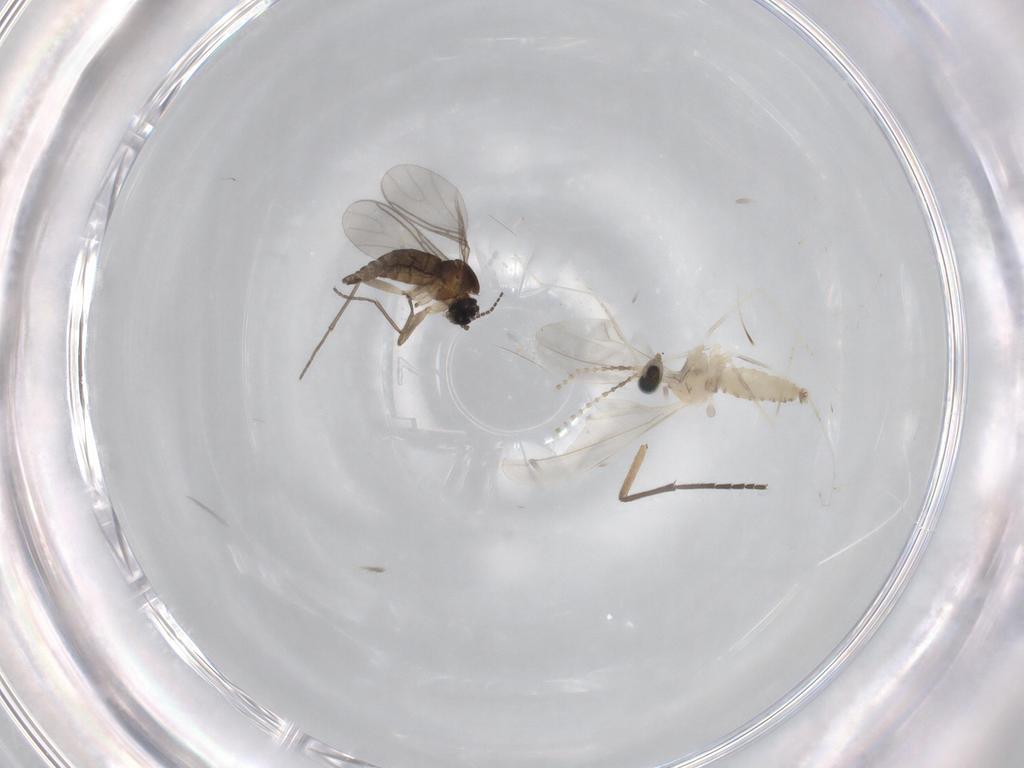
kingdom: Animalia
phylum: Arthropoda
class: Insecta
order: Diptera
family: Sciaridae
